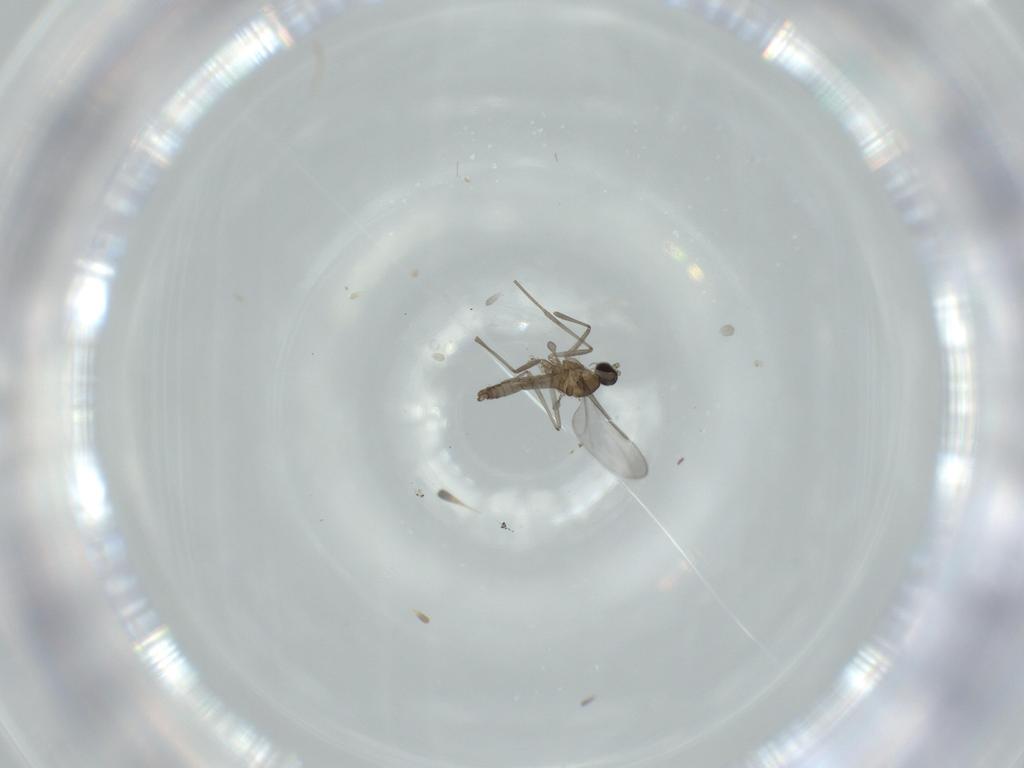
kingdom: Animalia
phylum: Arthropoda
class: Insecta
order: Diptera
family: Cecidomyiidae
